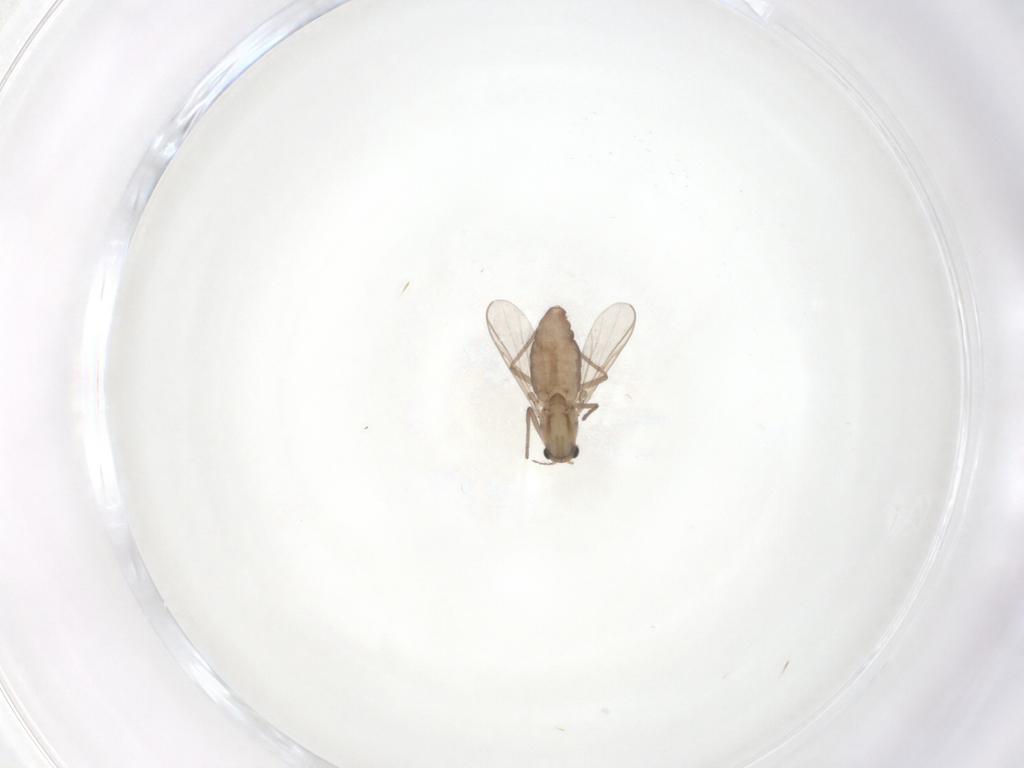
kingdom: Animalia
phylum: Arthropoda
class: Insecta
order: Diptera
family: Chironomidae
